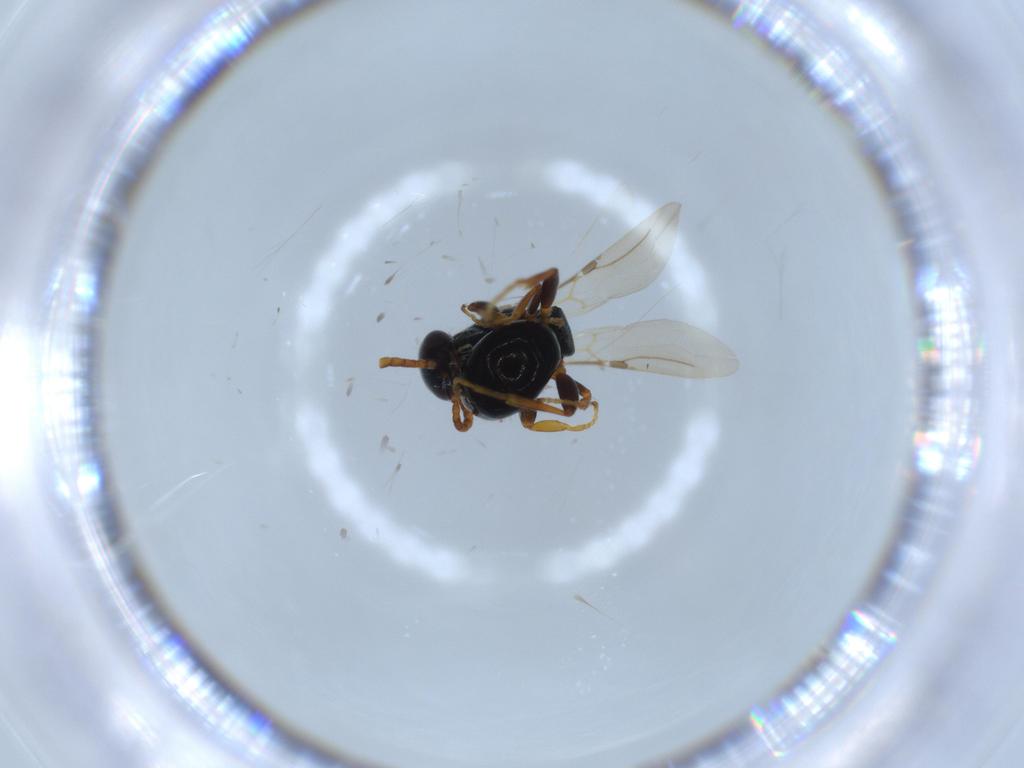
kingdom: Animalia
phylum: Arthropoda
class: Insecta
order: Hymenoptera
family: Bethylidae
